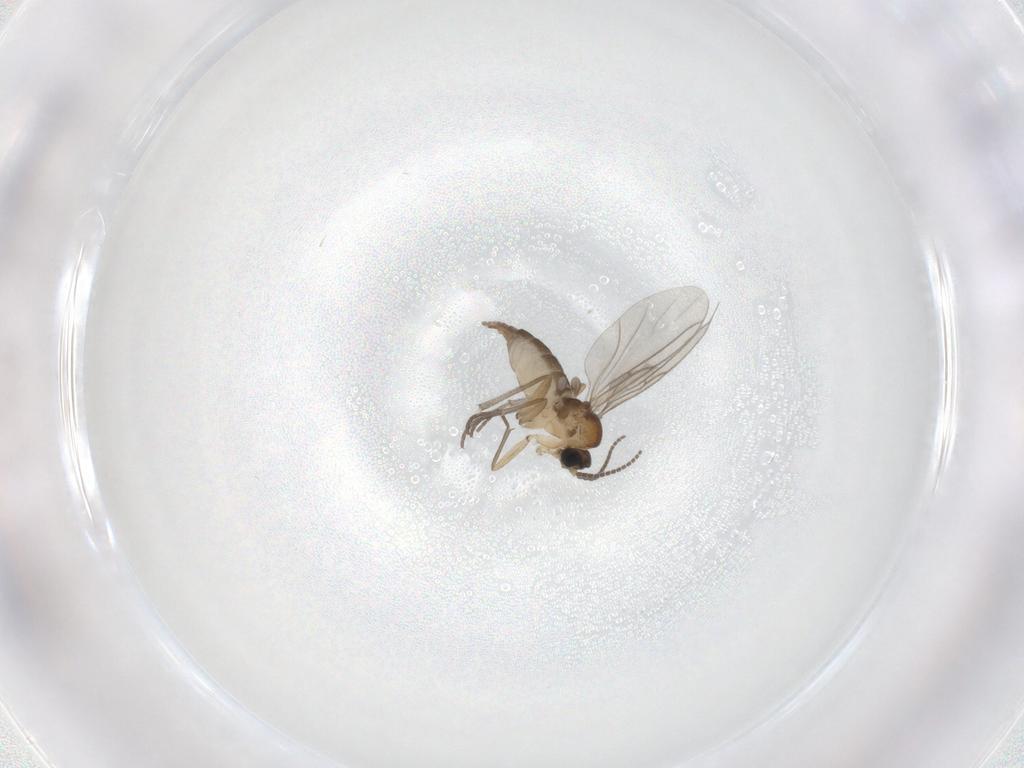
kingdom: Animalia
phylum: Arthropoda
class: Insecta
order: Diptera
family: Sciaridae
